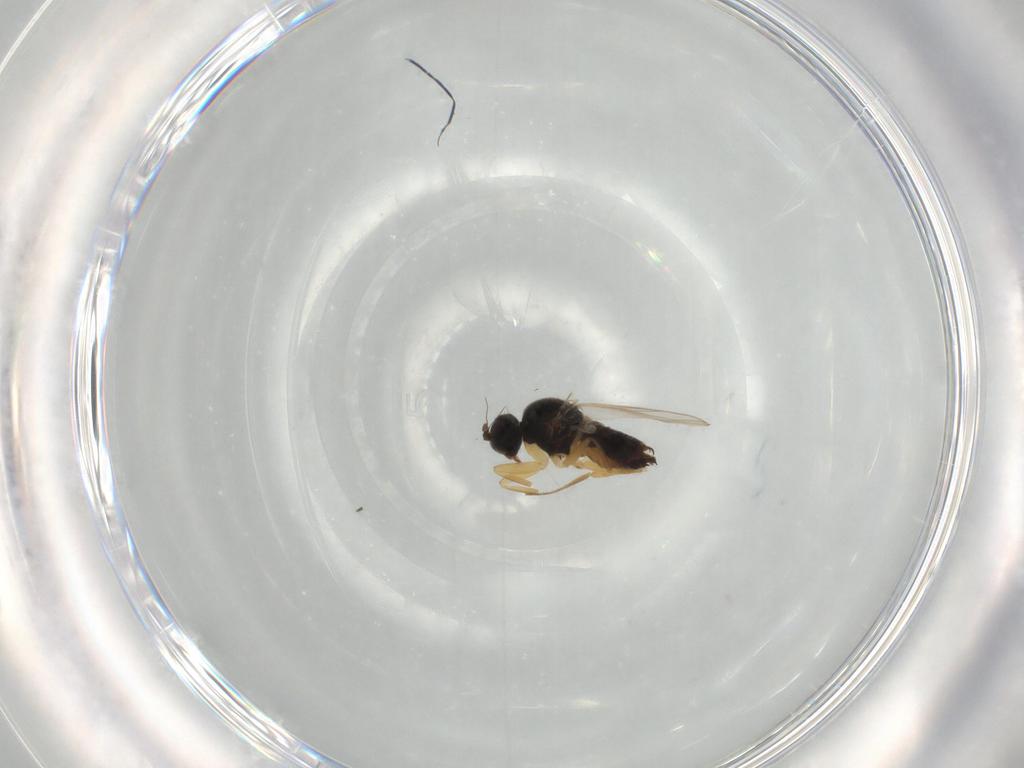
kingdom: Animalia
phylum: Arthropoda
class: Insecta
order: Diptera
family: Hybotidae
